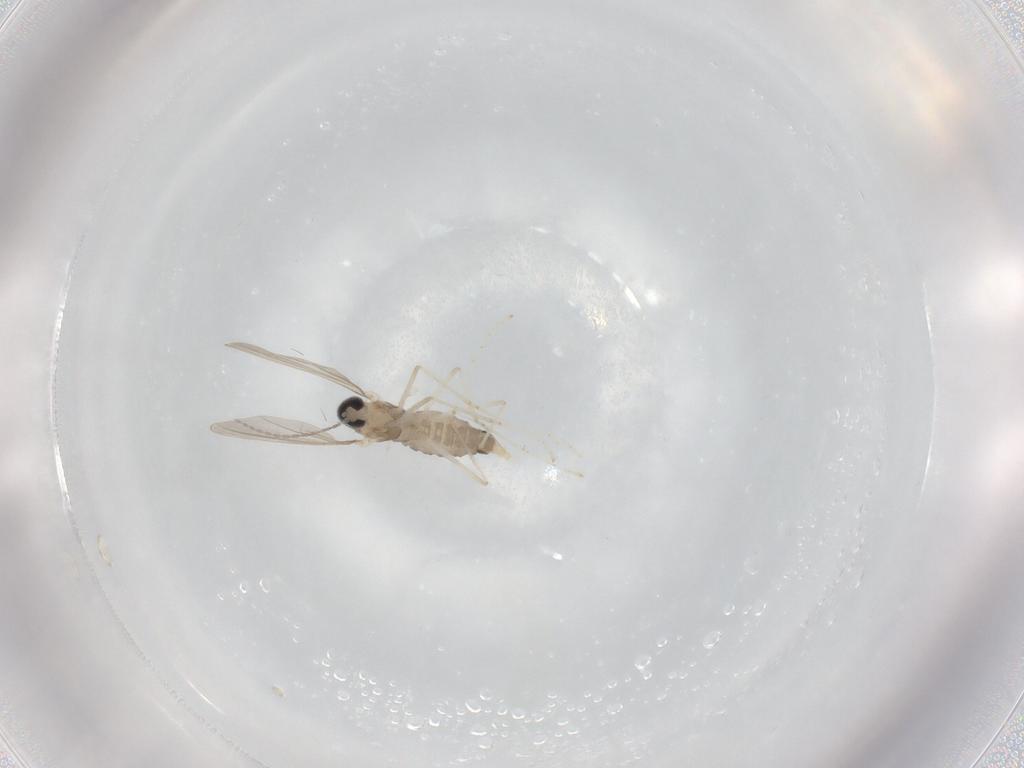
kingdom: Animalia
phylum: Arthropoda
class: Insecta
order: Diptera
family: Cecidomyiidae
